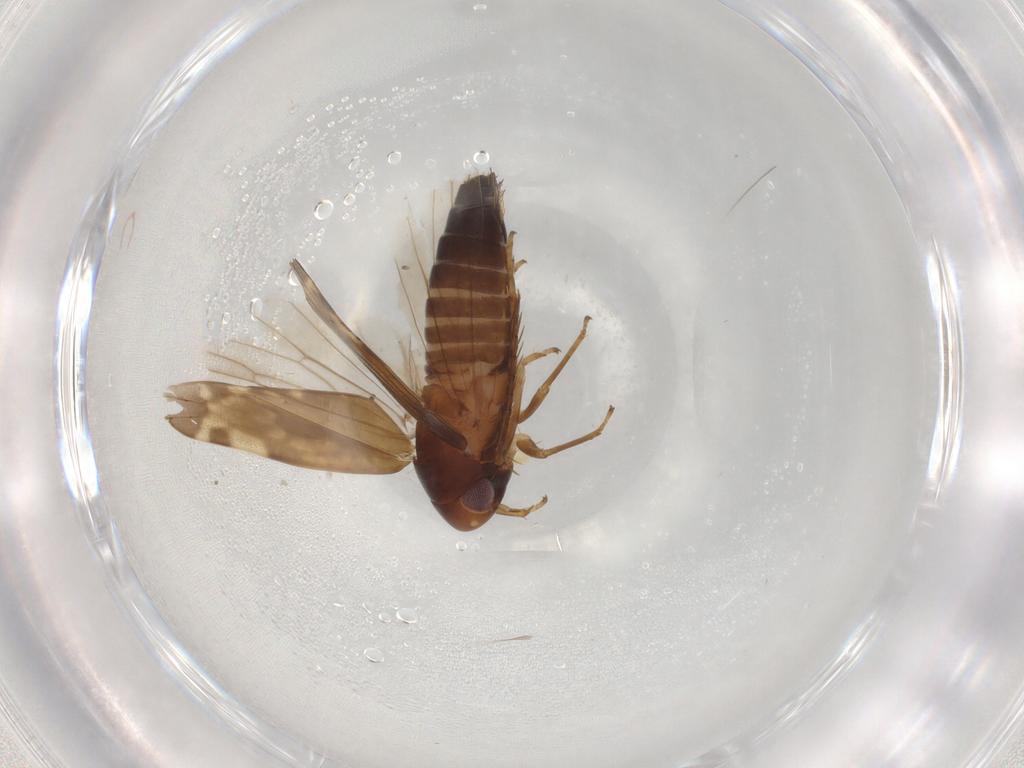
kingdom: Animalia
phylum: Arthropoda
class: Insecta
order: Hemiptera
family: Cicadellidae
